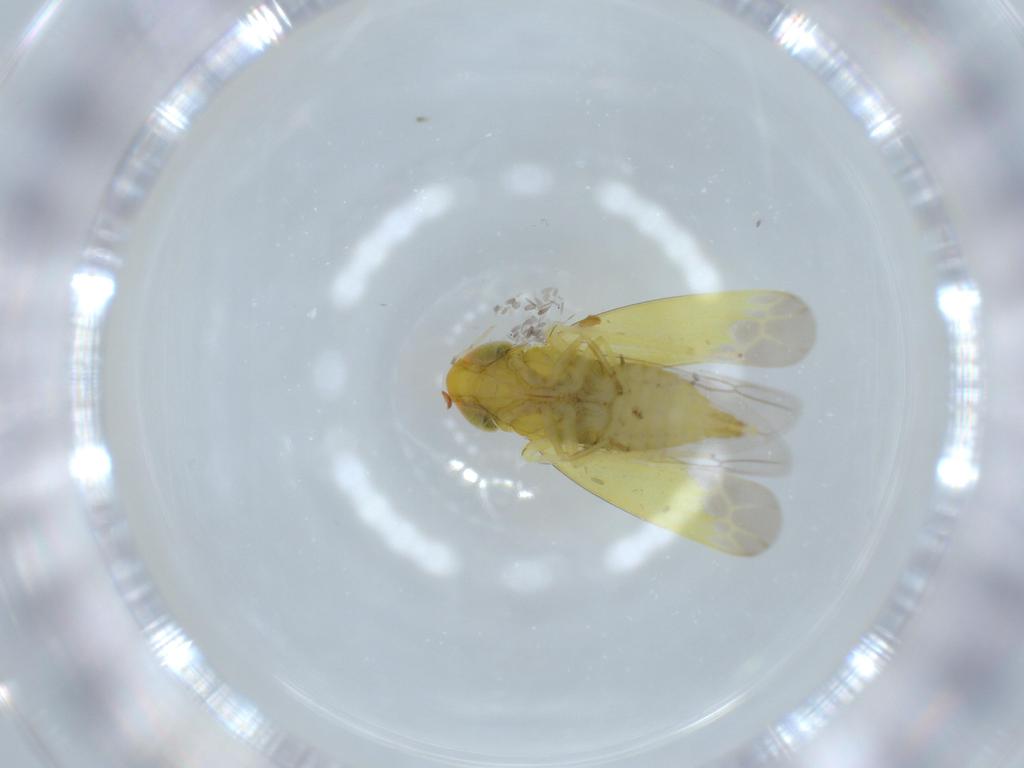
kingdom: Animalia
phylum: Arthropoda
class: Insecta
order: Hemiptera
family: Cicadellidae
